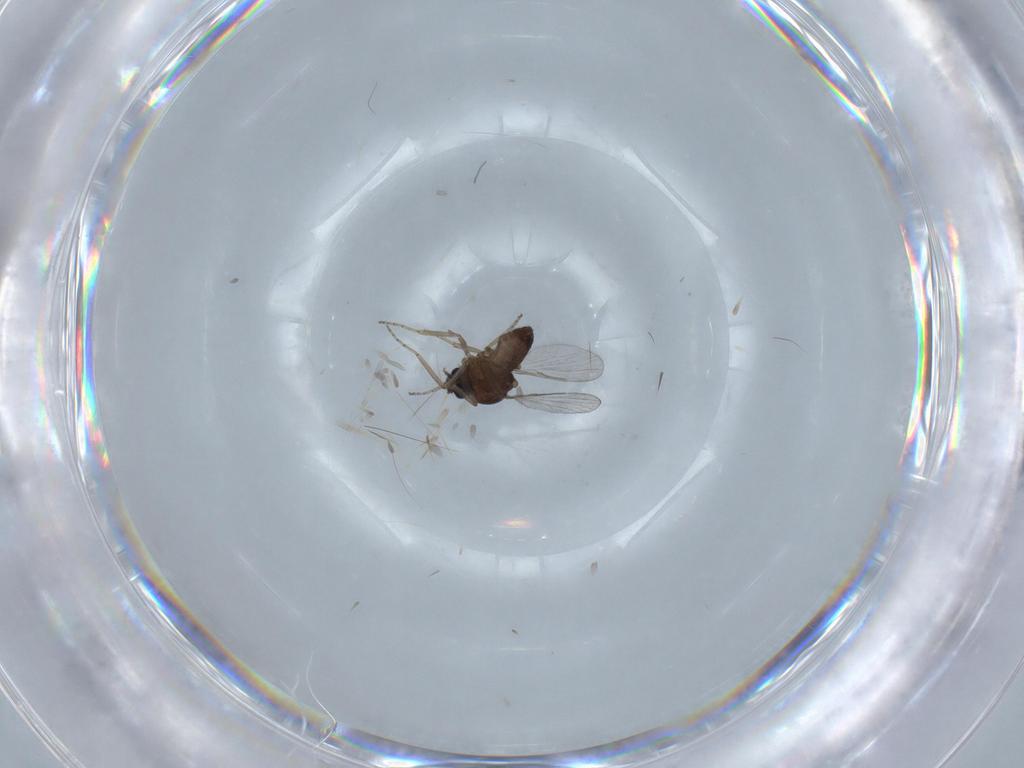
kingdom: Animalia
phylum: Arthropoda
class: Insecta
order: Diptera
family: Ceratopogonidae
